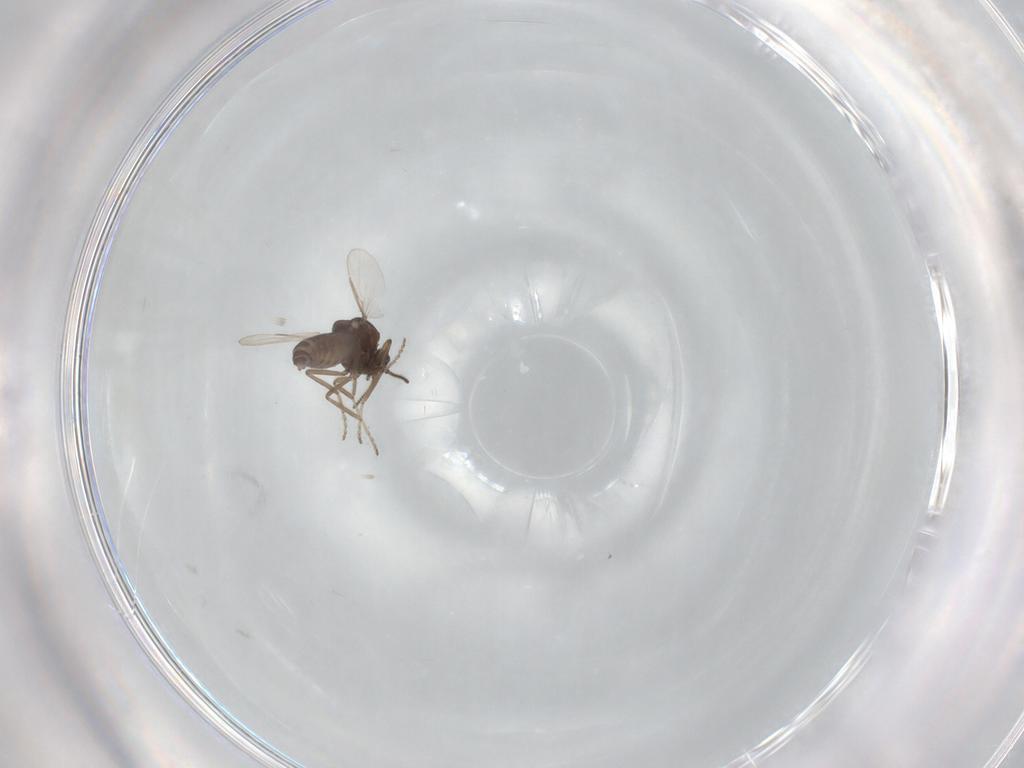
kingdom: Animalia
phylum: Arthropoda
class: Insecta
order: Diptera
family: Ceratopogonidae
